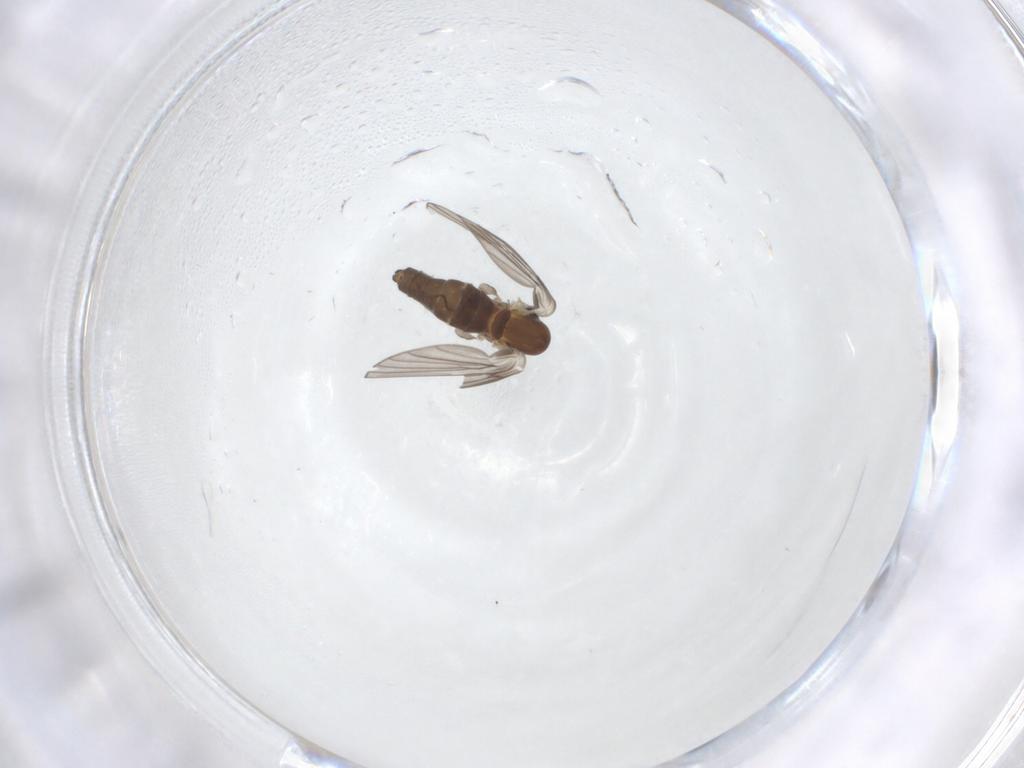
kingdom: Animalia
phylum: Arthropoda
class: Insecta
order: Diptera
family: Psychodidae
